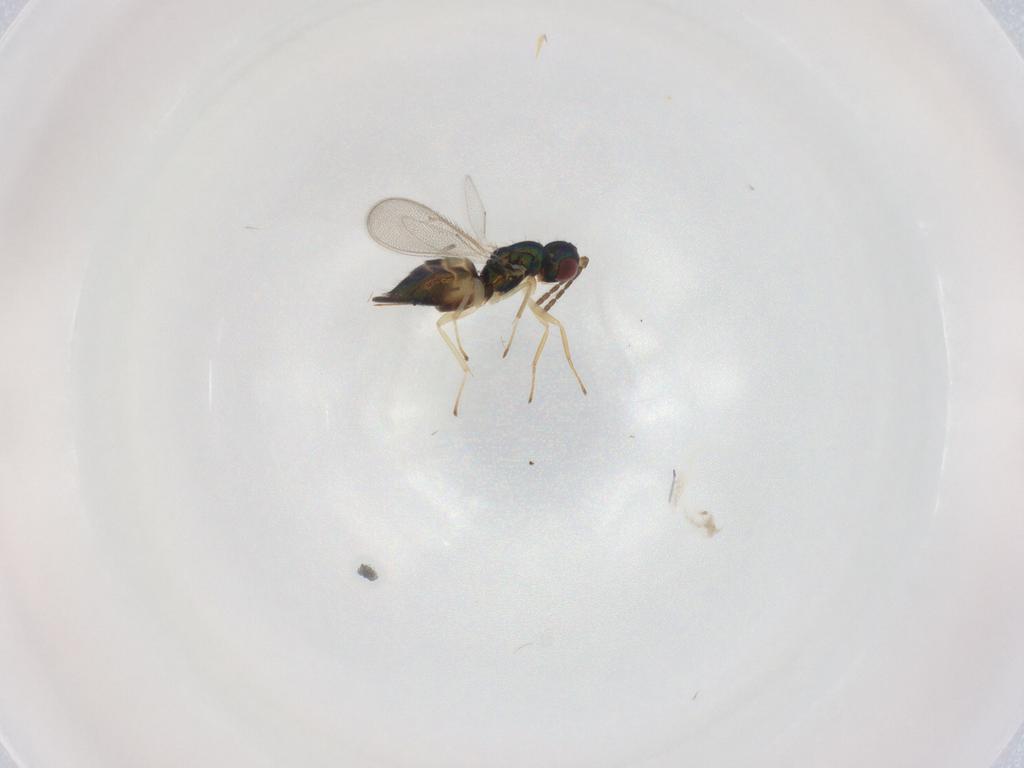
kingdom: Animalia
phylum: Arthropoda
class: Insecta
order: Hymenoptera
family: Eulophidae
